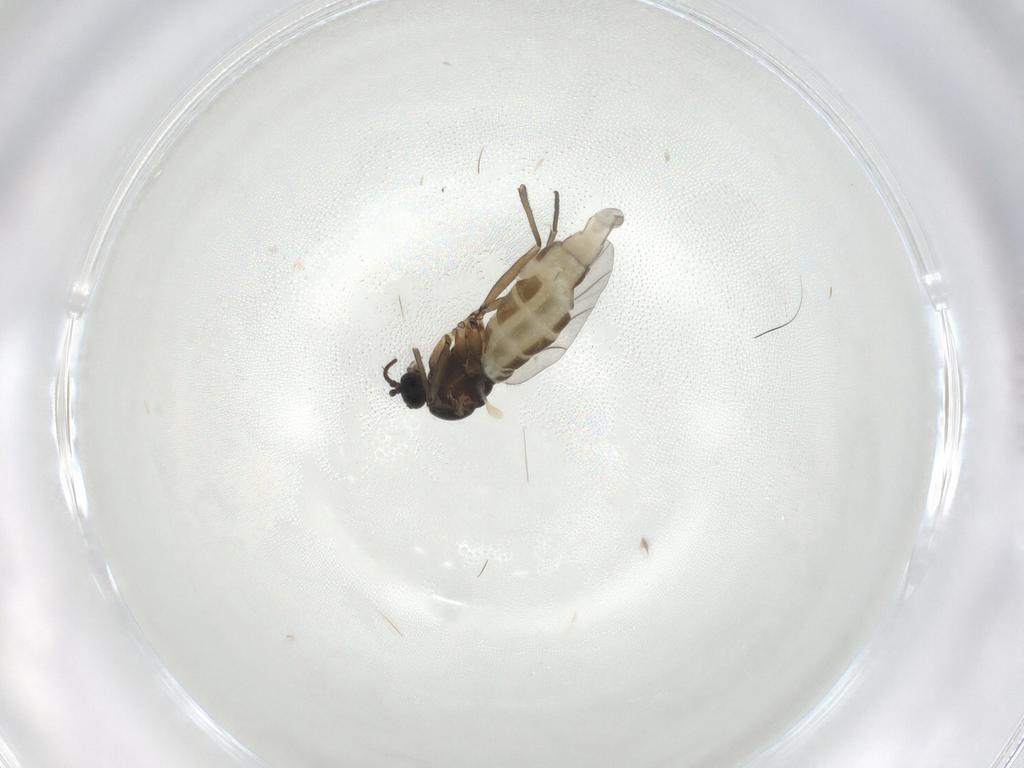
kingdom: Animalia
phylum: Arthropoda
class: Insecta
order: Diptera
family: Sciaridae
